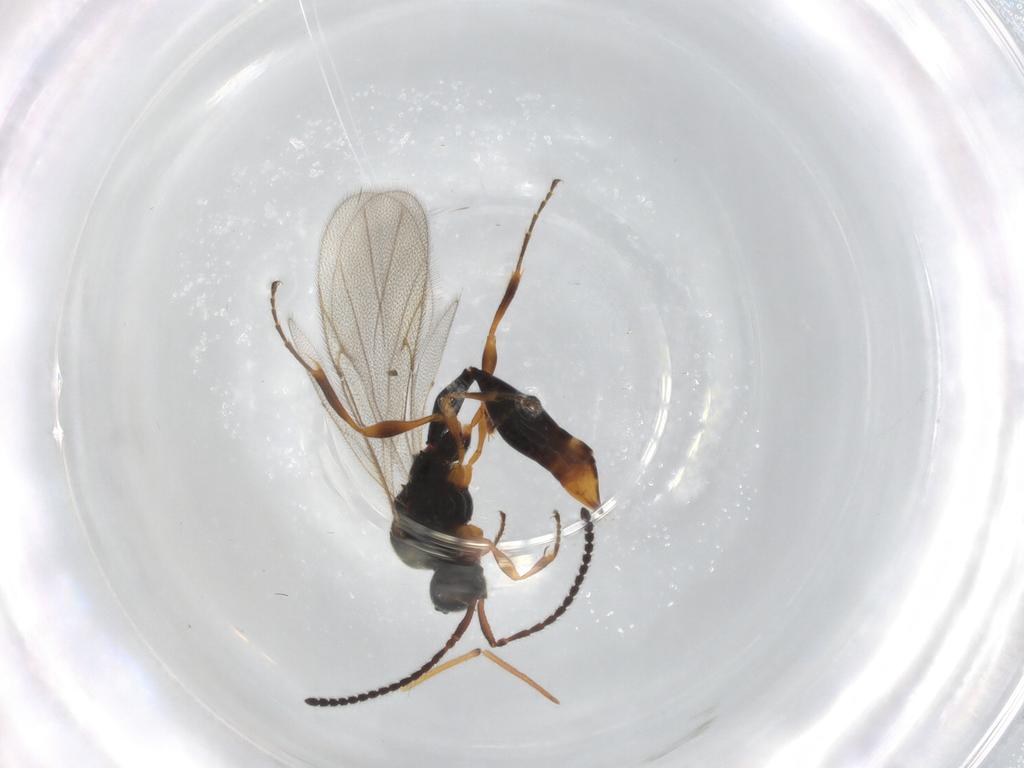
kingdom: Animalia
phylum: Arthropoda
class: Insecta
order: Hymenoptera
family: Diapriidae
